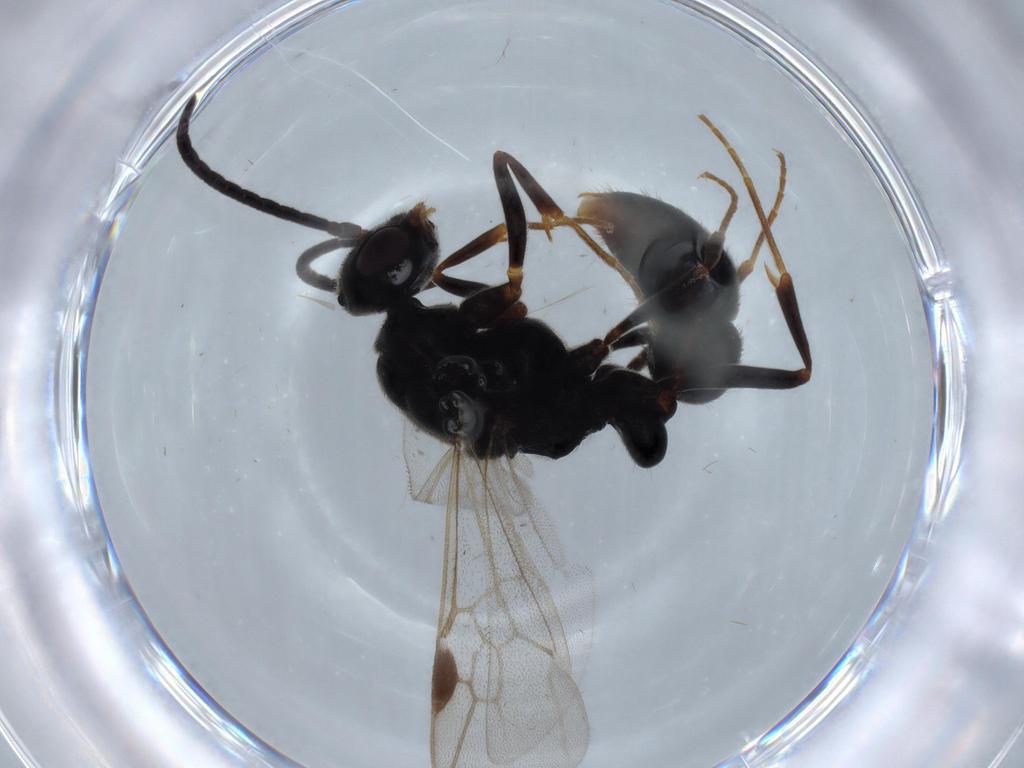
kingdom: Animalia
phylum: Arthropoda
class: Insecta
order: Hymenoptera
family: Formicidae
